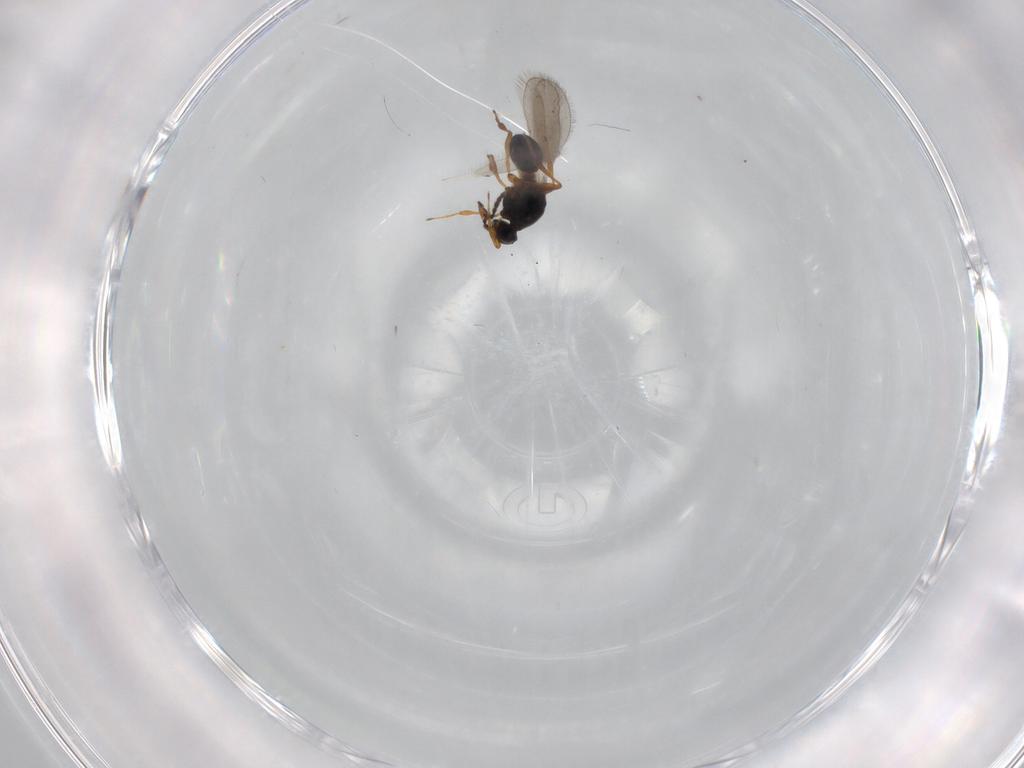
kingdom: Animalia
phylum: Arthropoda
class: Insecta
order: Hymenoptera
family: Platygastridae
